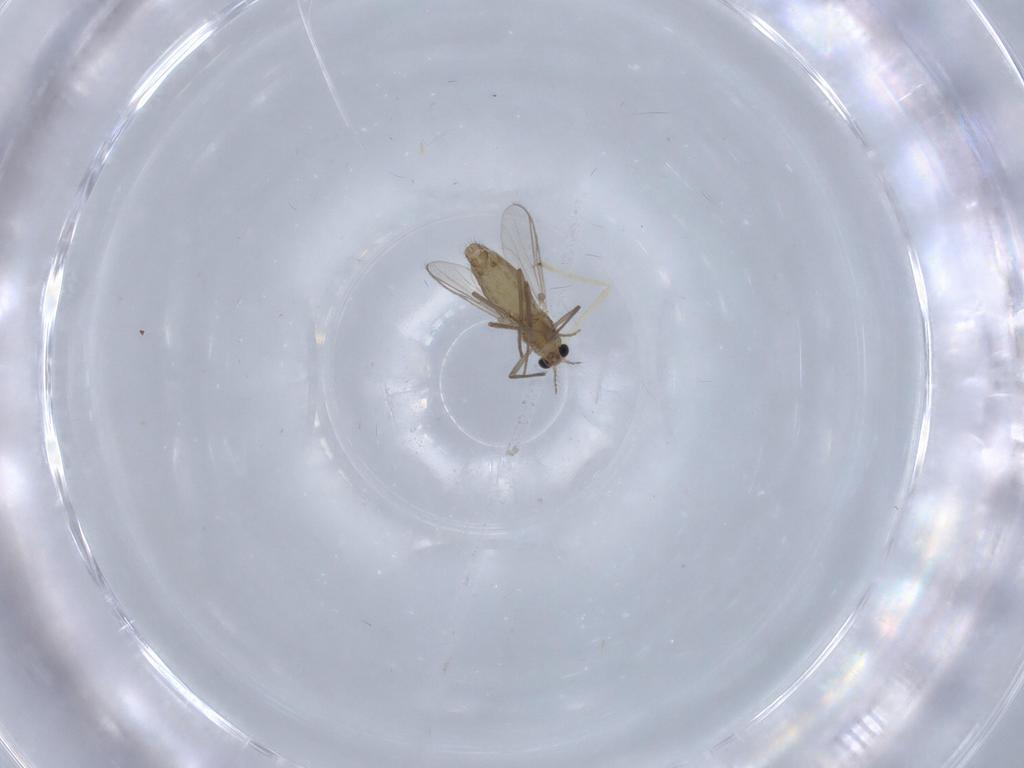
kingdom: Animalia
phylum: Arthropoda
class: Insecta
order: Diptera
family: Chironomidae
